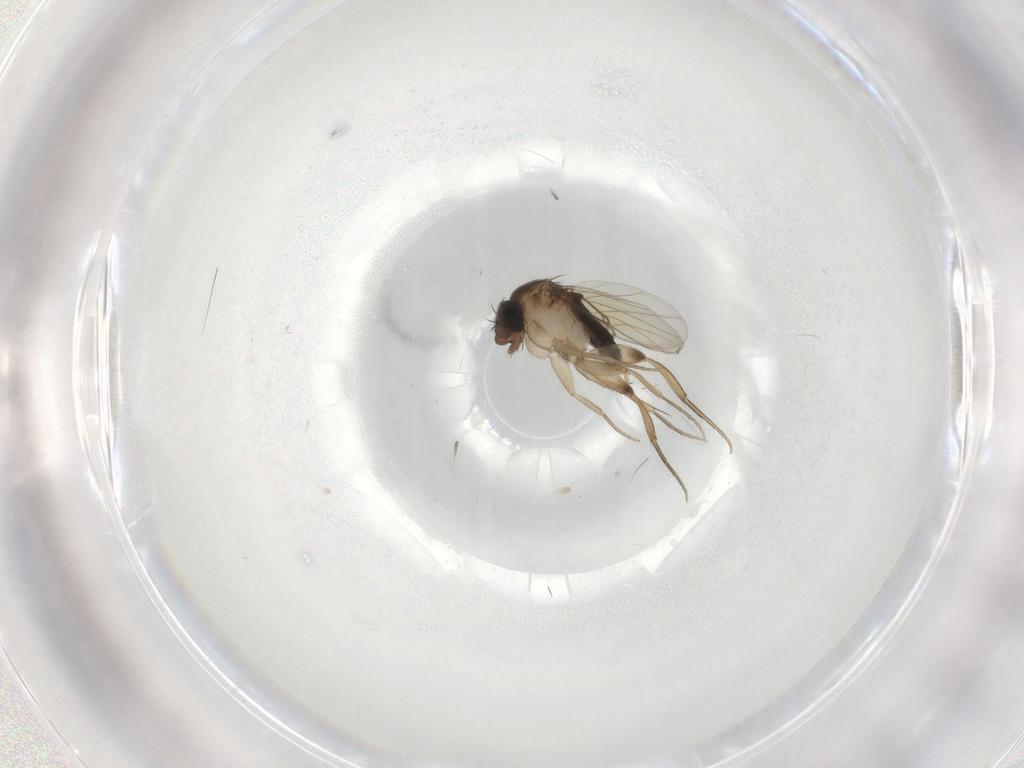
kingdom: Animalia
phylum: Arthropoda
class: Insecta
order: Diptera
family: Phoridae
